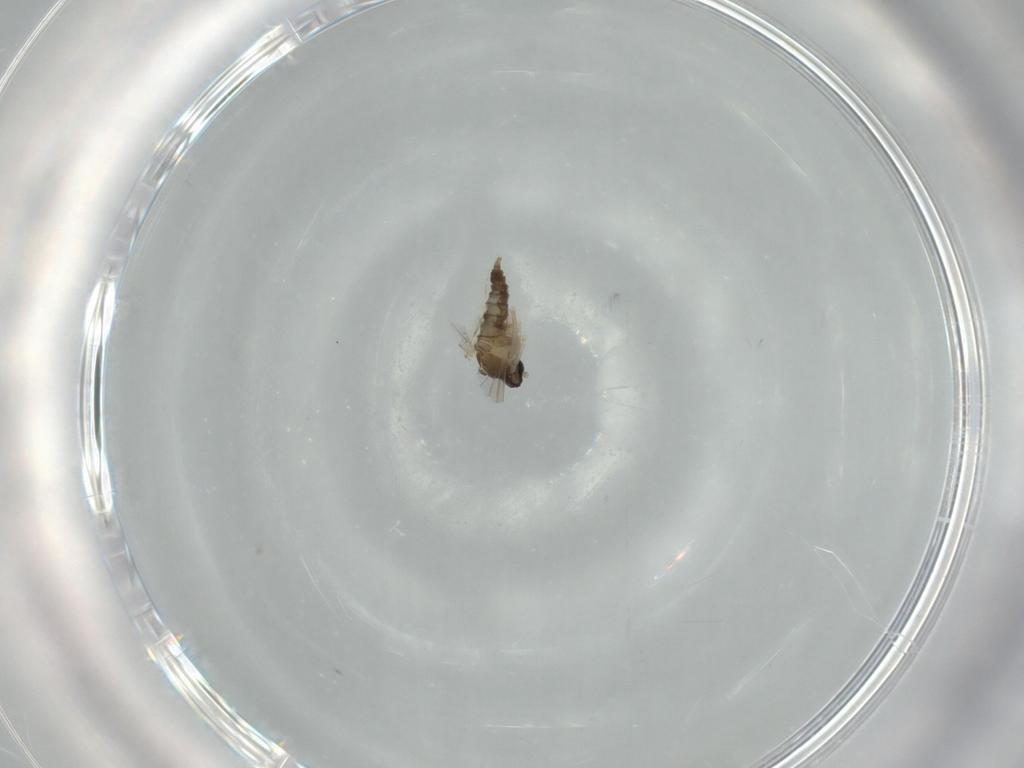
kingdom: Animalia
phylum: Arthropoda
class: Insecta
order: Diptera
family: Cecidomyiidae
